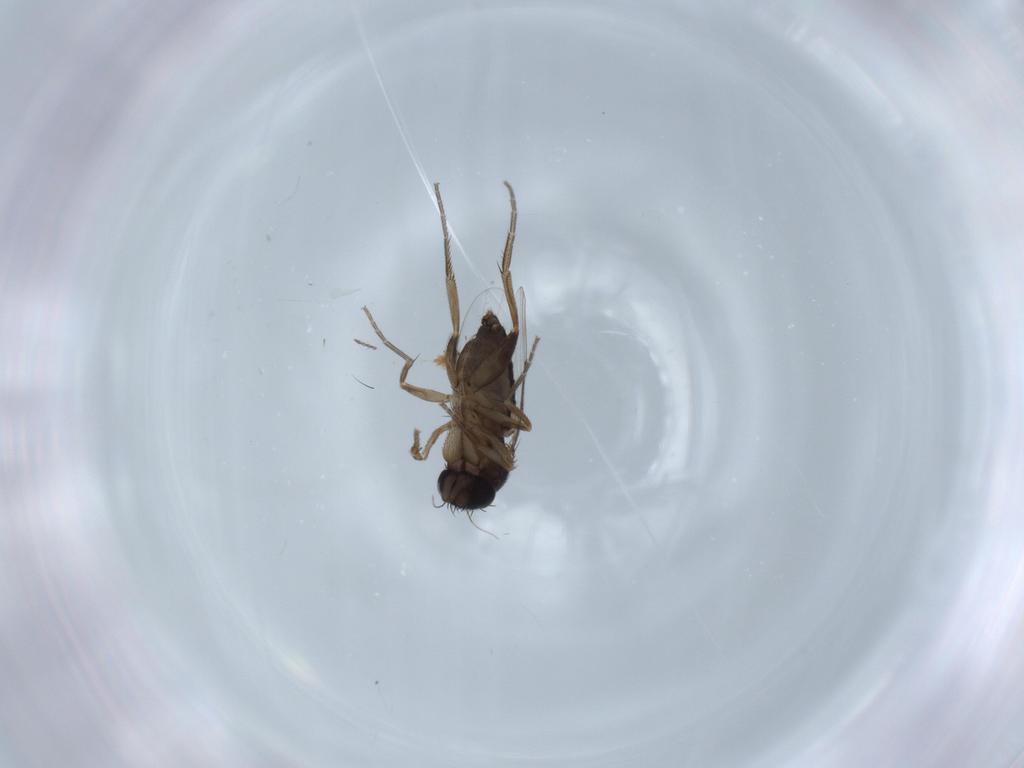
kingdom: Animalia
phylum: Arthropoda
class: Insecta
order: Diptera
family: Phoridae
